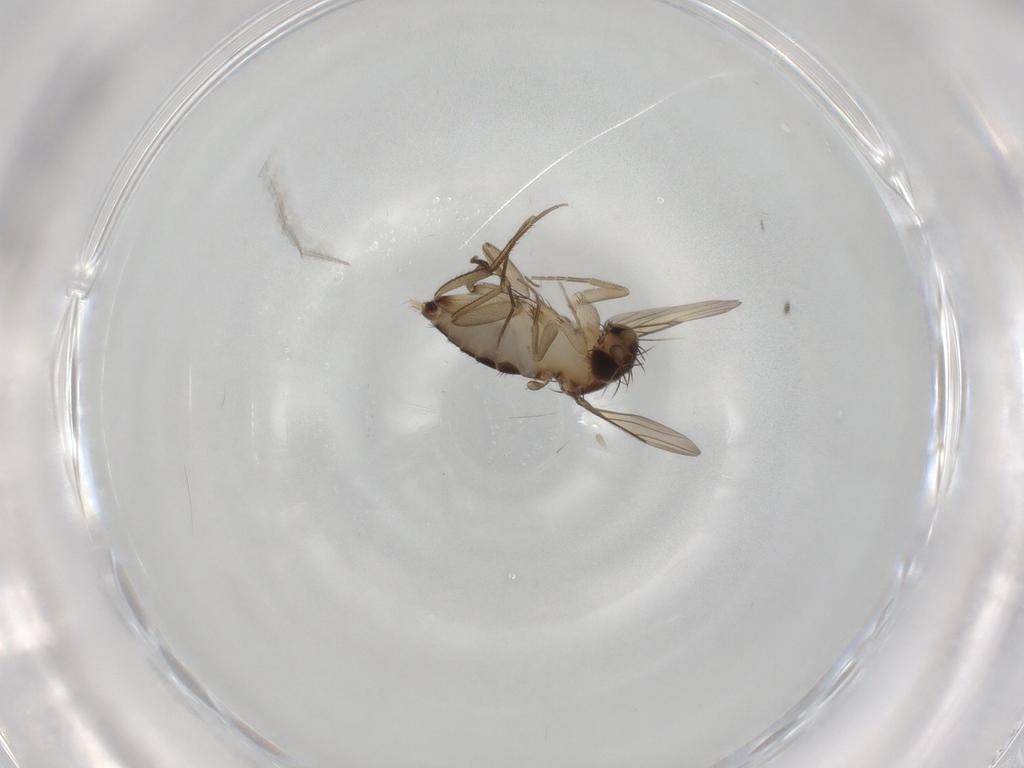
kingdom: Animalia
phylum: Arthropoda
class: Insecta
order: Diptera
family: Phoridae
